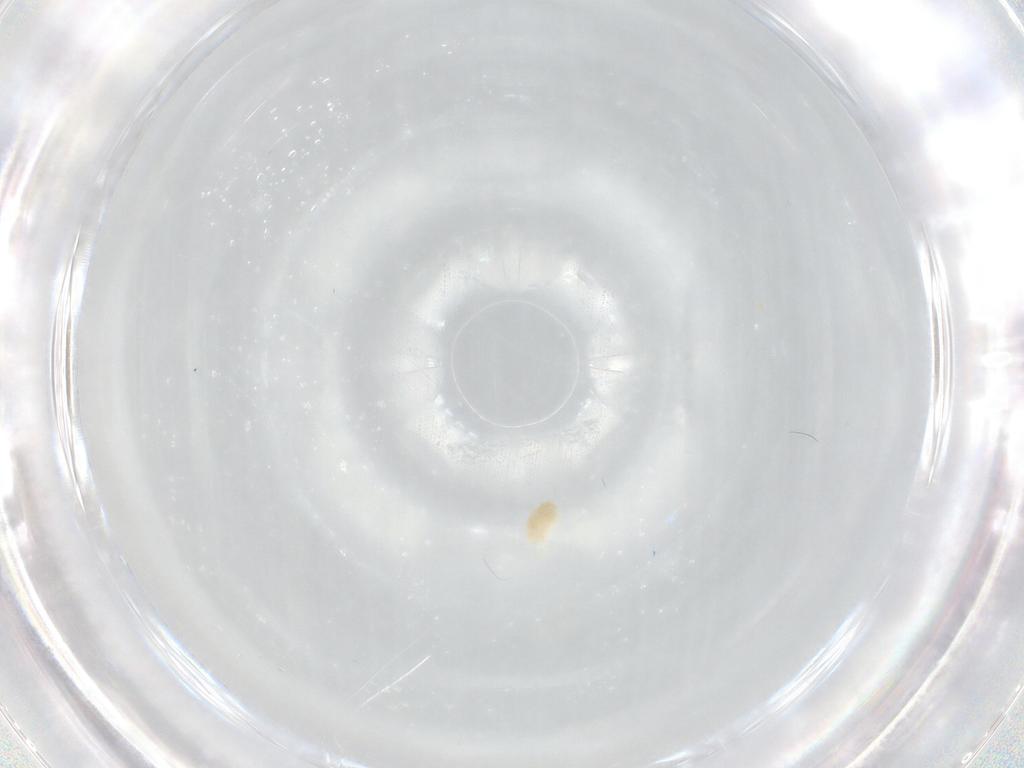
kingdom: Animalia
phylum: Arthropoda
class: Arachnida
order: Trombidiformes
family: Eupodidae
